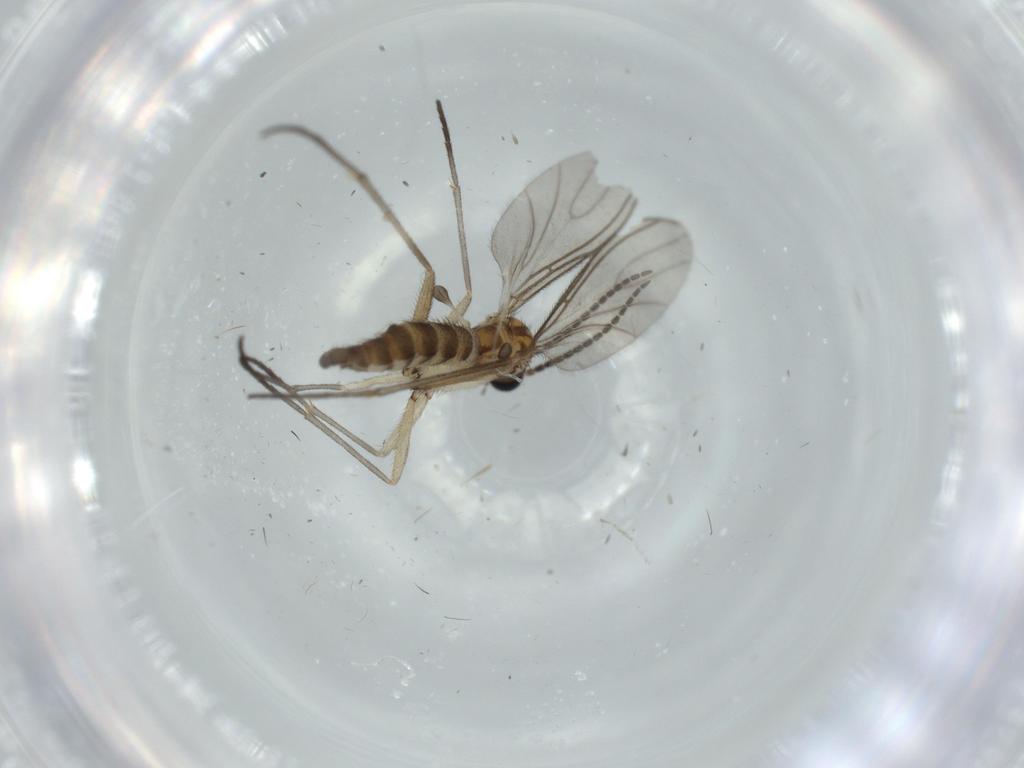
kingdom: Animalia
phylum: Arthropoda
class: Insecta
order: Diptera
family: Sciaridae
